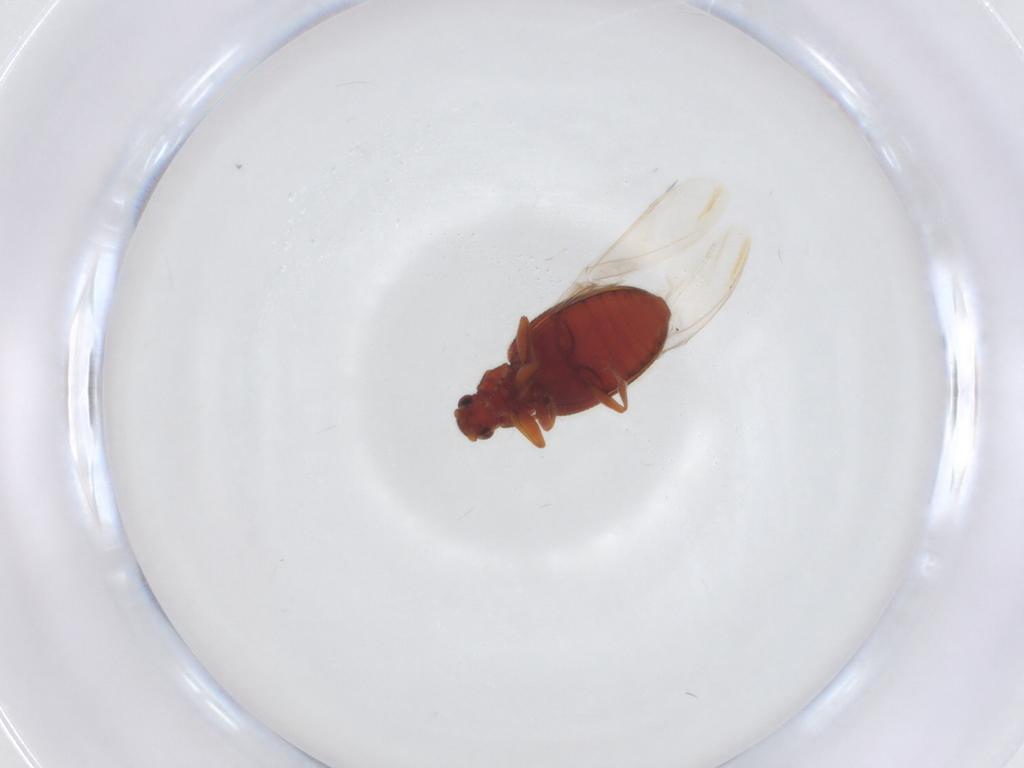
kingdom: Animalia
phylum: Arthropoda
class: Insecta
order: Coleoptera
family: Latridiidae
